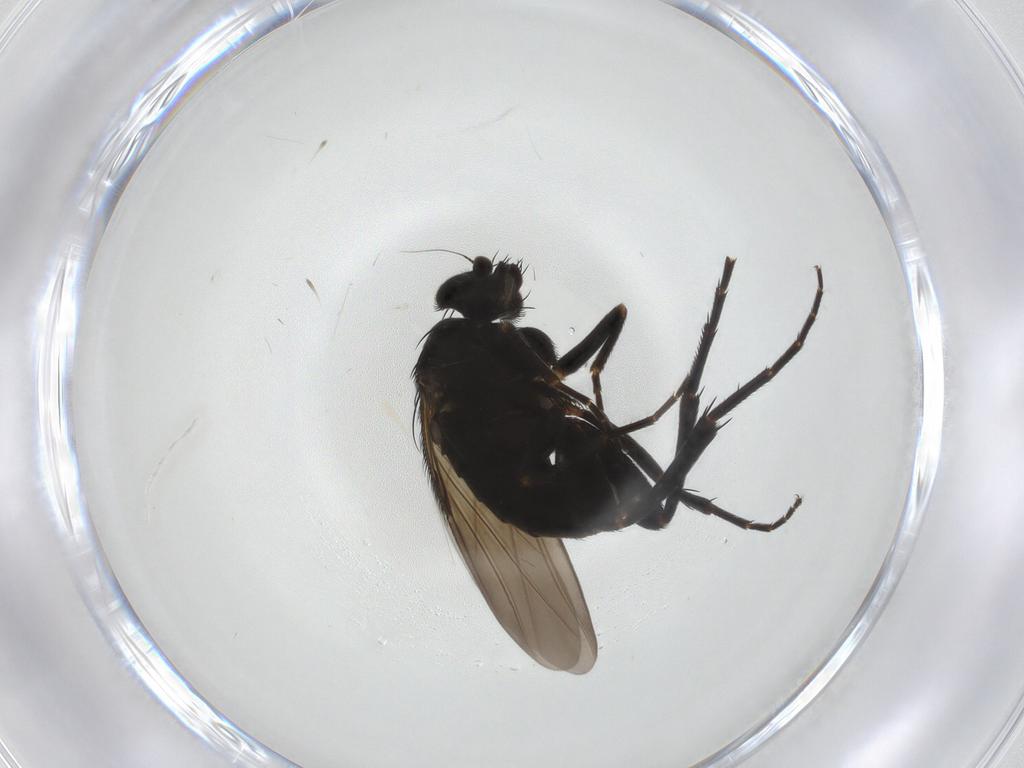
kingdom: Animalia
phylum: Arthropoda
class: Insecta
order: Diptera
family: Phoridae
